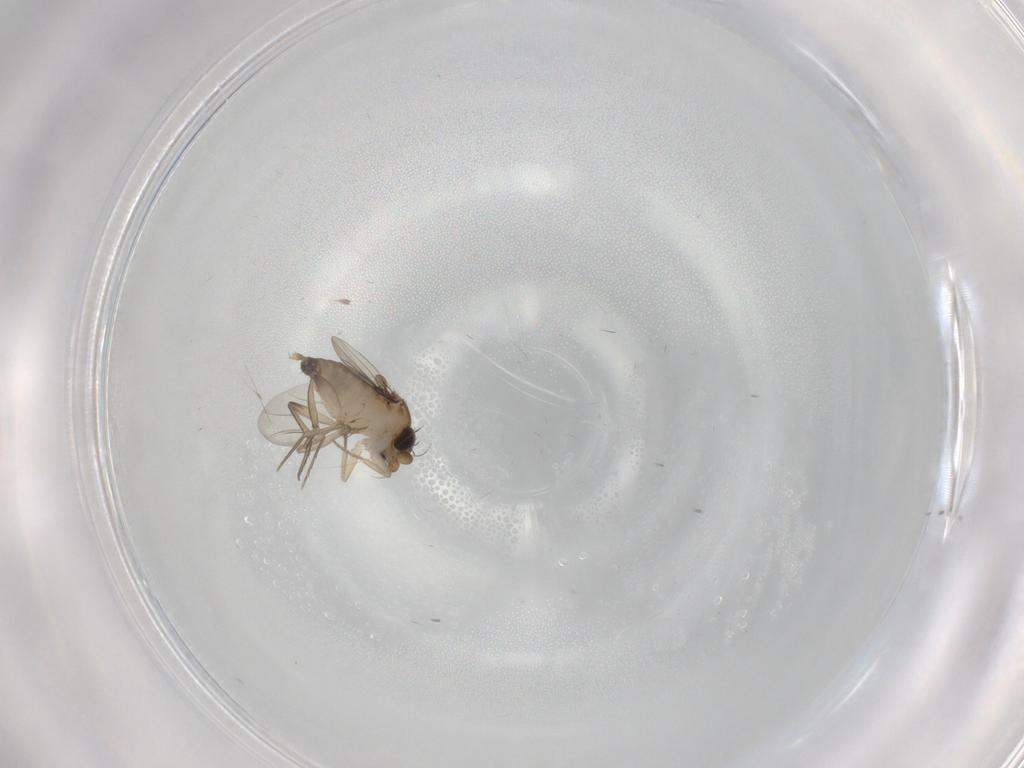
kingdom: Animalia
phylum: Arthropoda
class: Insecta
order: Diptera
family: Phoridae
